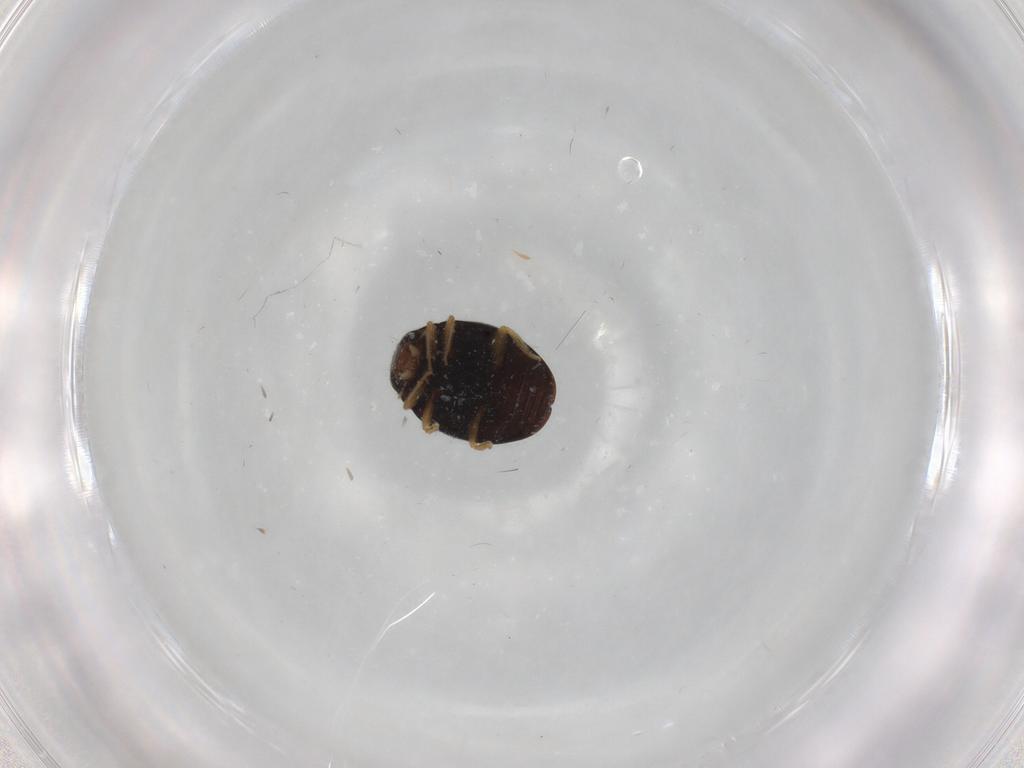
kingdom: Animalia
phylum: Arthropoda
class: Insecta
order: Coleoptera
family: Coccinellidae
